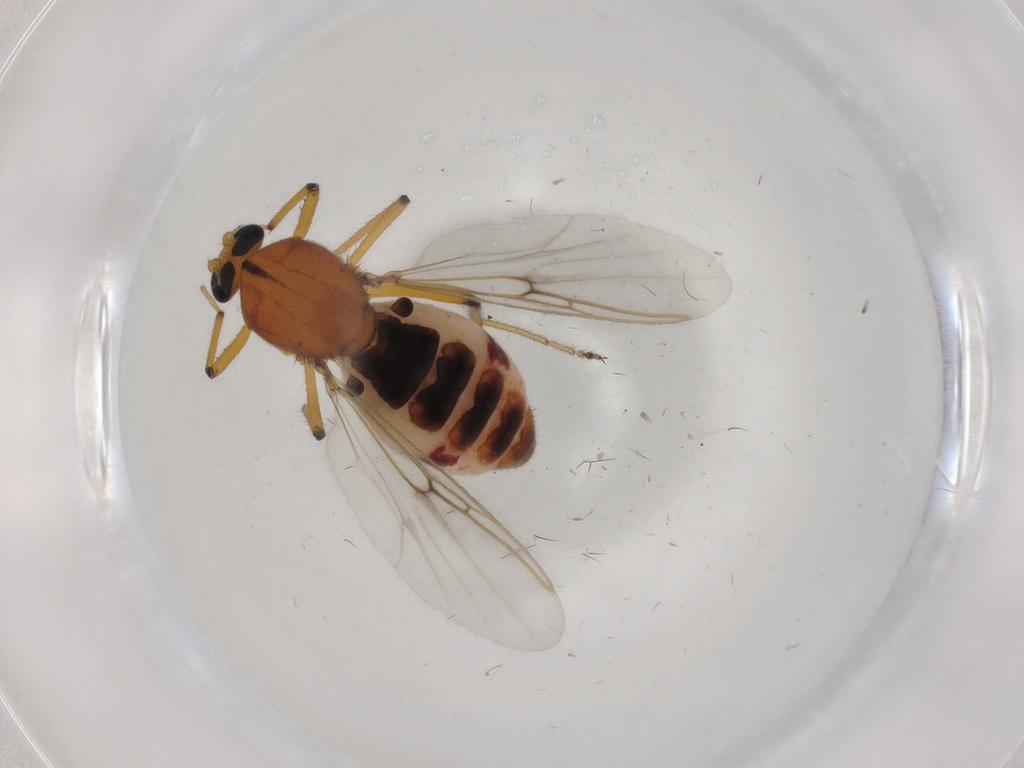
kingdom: Animalia
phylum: Arthropoda
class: Insecta
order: Diptera
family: Ceratopogonidae
